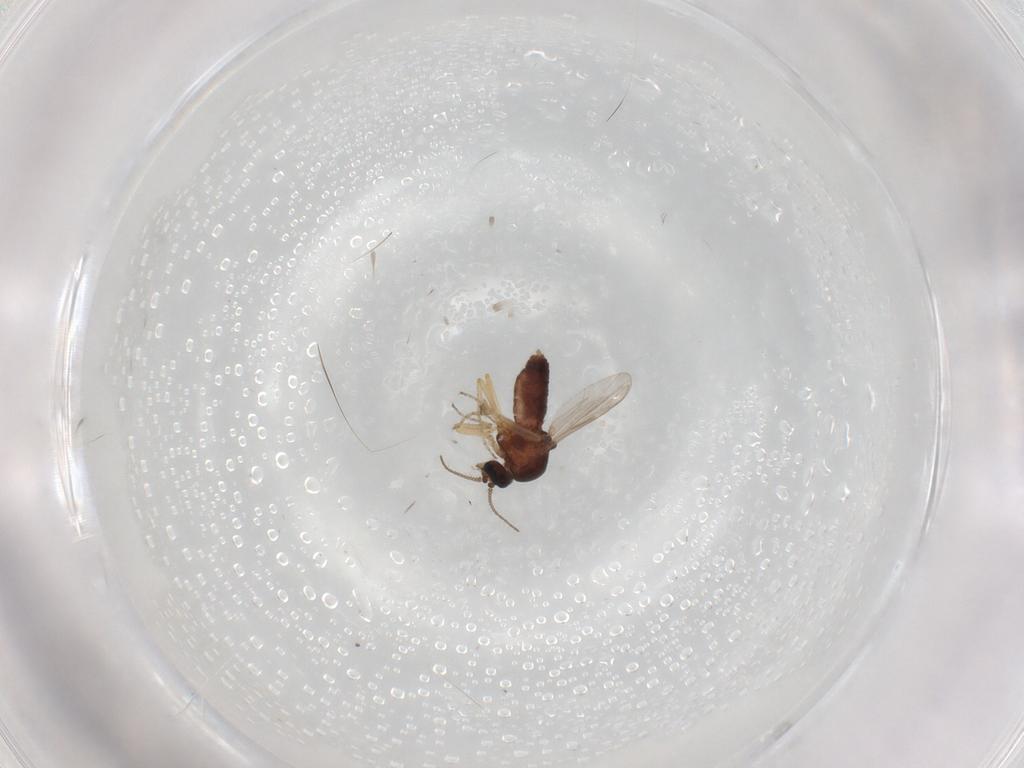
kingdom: Animalia
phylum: Arthropoda
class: Insecta
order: Diptera
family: Ceratopogonidae
